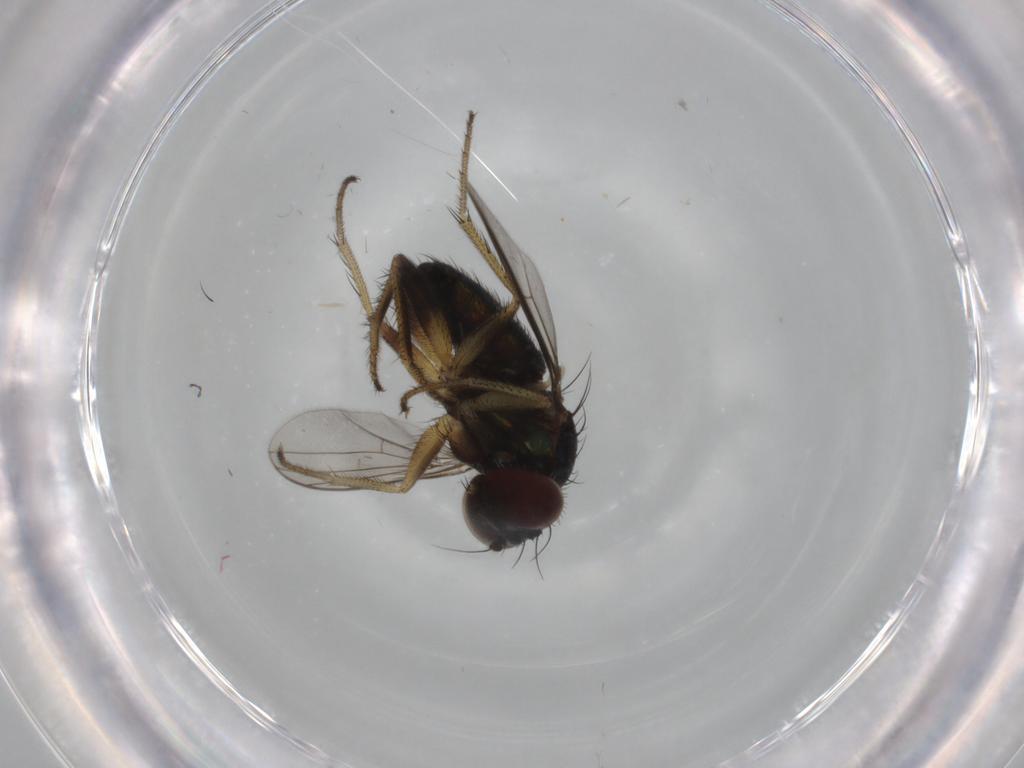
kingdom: Animalia
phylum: Arthropoda
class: Insecta
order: Diptera
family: Dolichopodidae
